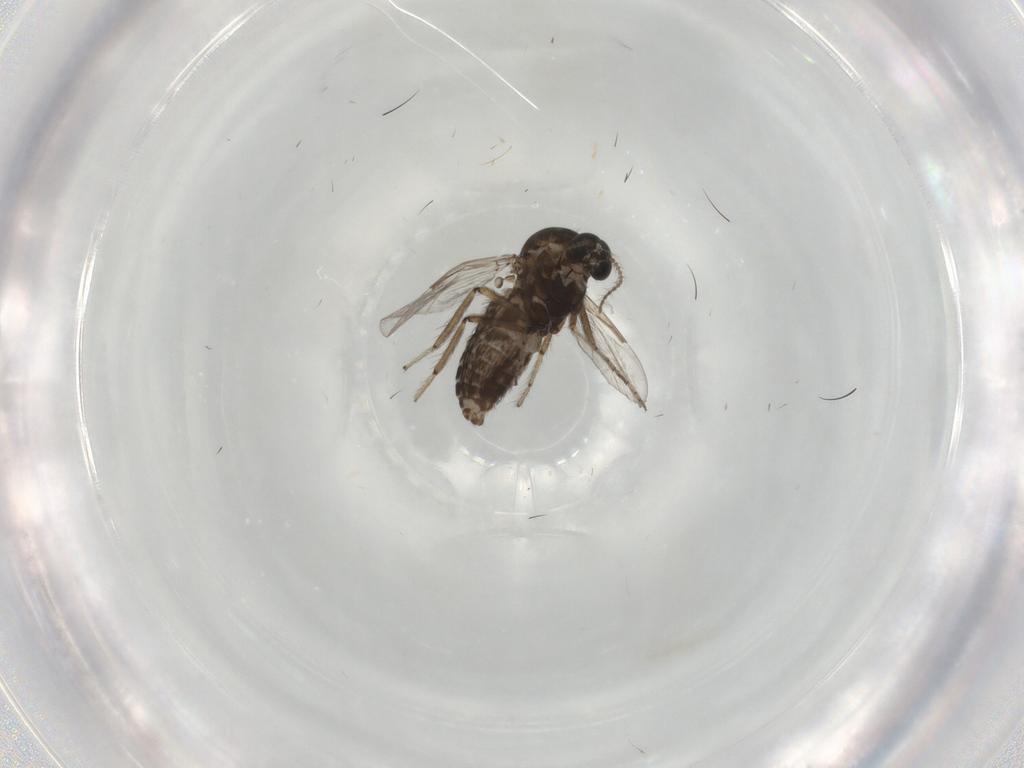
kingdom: Animalia
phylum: Arthropoda
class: Insecta
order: Diptera
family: Ceratopogonidae
